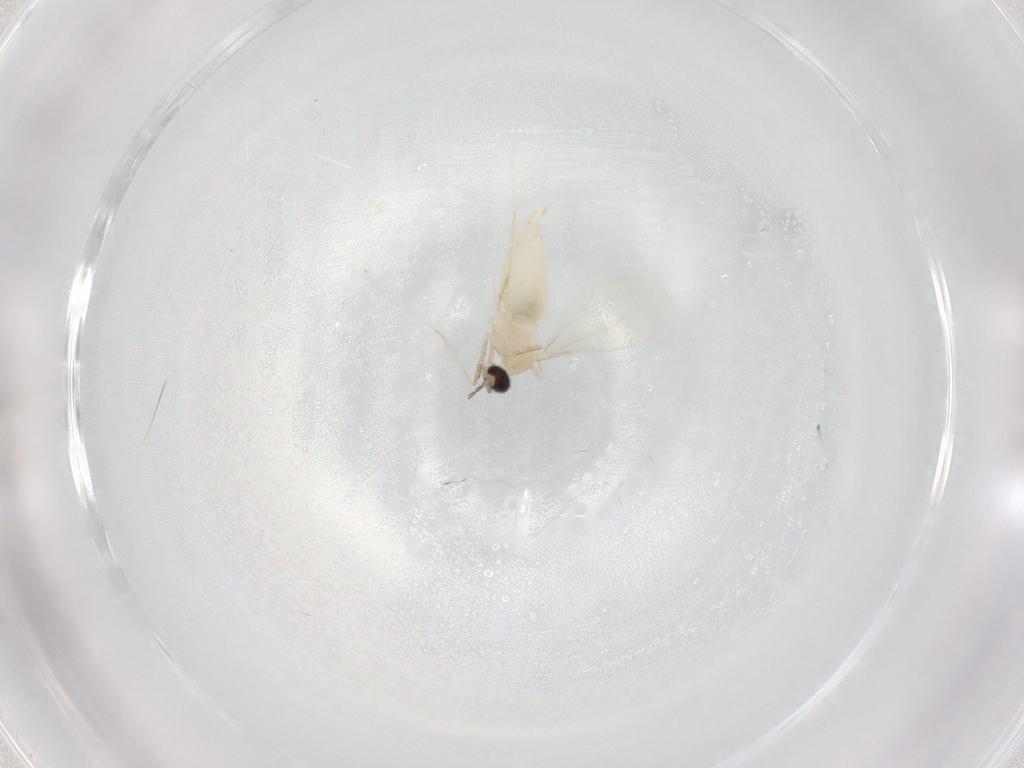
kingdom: Animalia
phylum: Arthropoda
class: Insecta
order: Diptera
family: Cecidomyiidae
